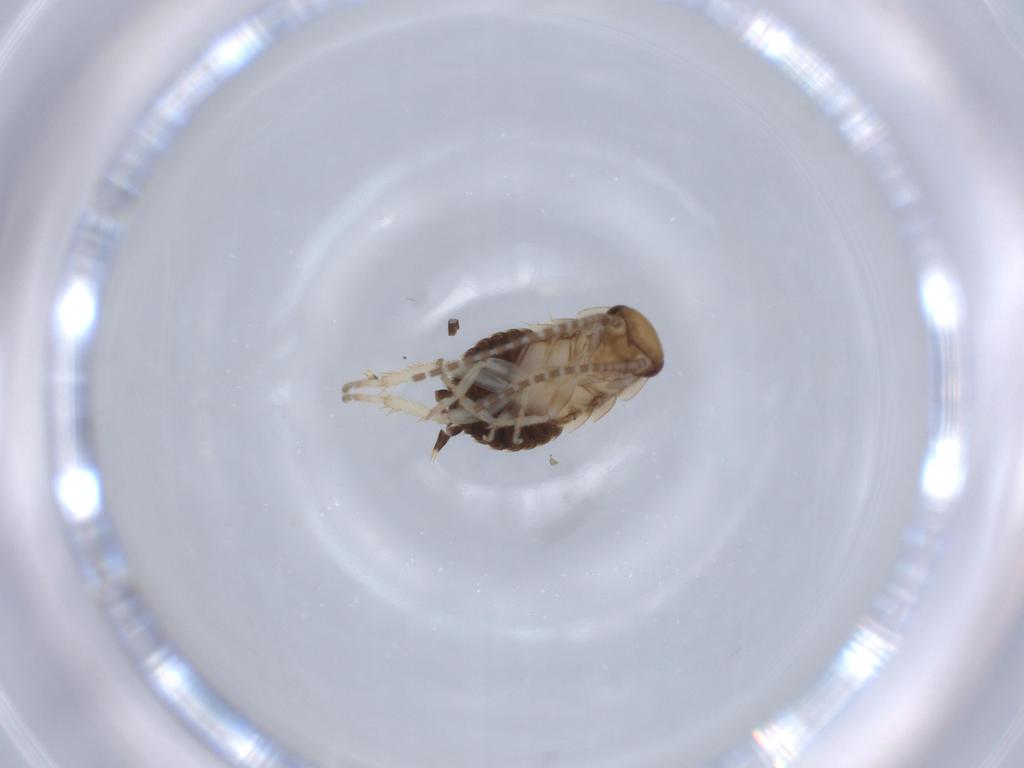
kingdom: Animalia
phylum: Arthropoda
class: Insecta
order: Blattodea
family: Ectobiidae
